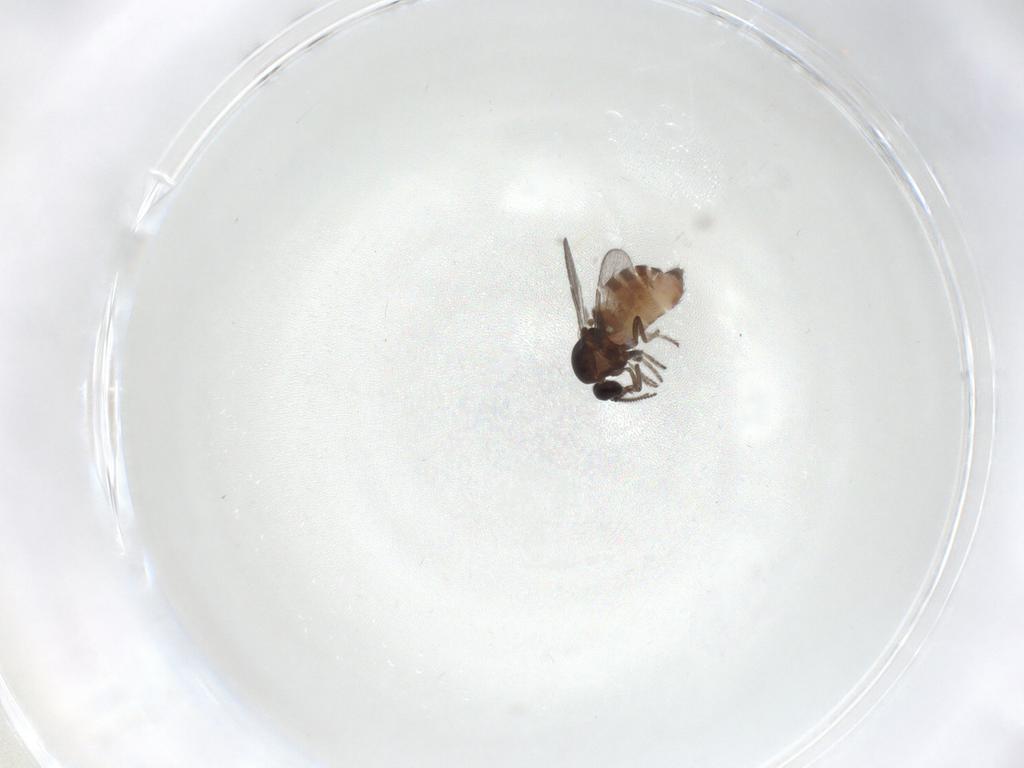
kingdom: Animalia
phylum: Arthropoda
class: Insecta
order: Diptera
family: Ceratopogonidae
